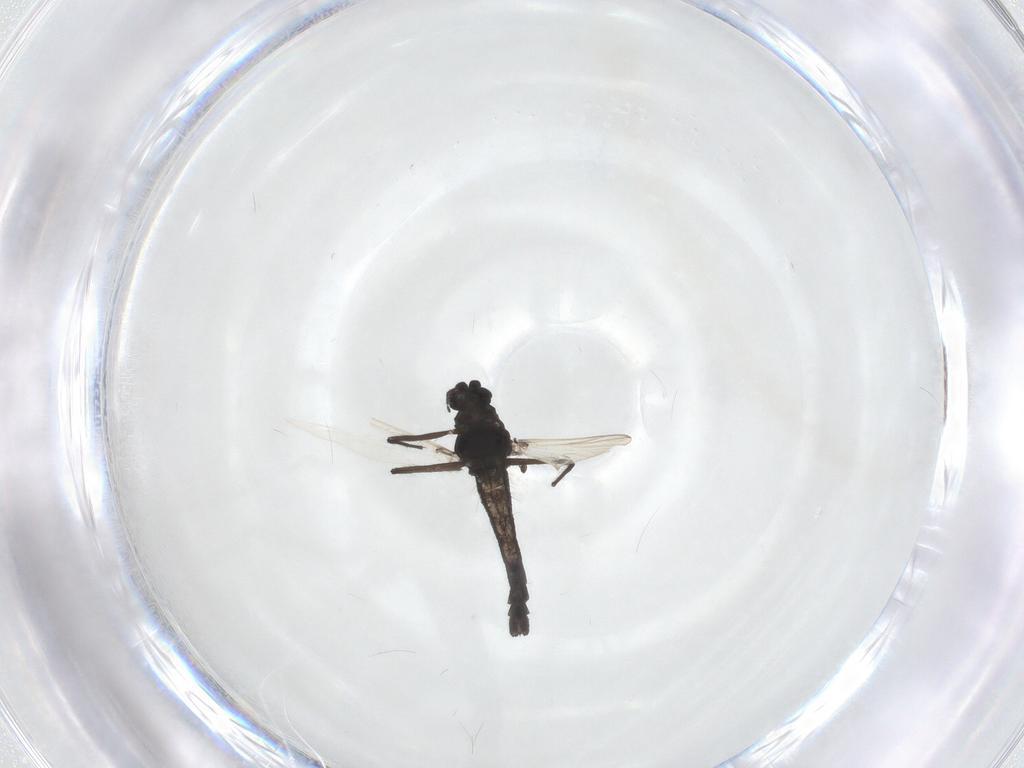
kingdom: Animalia
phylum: Arthropoda
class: Insecta
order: Diptera
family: Chironomidae
